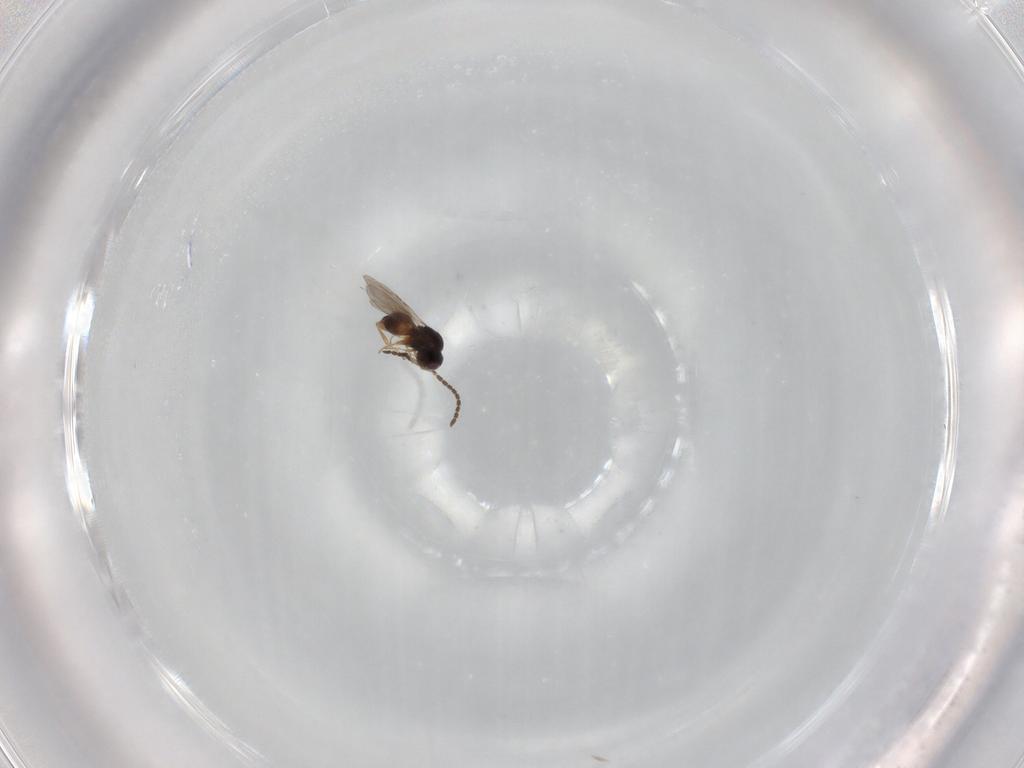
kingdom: Animalia
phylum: Arthropoda
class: Insecta
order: Hymenoptera
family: Ceraphronidae
